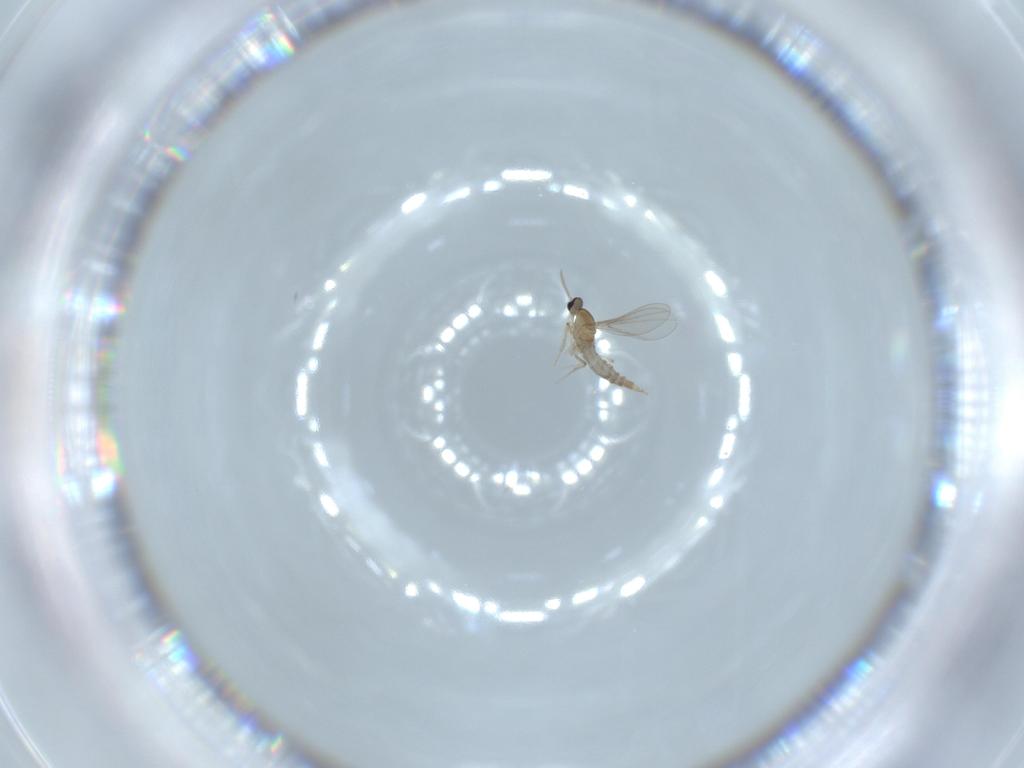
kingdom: Animalia
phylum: Arthropoda
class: Insecta
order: Diptera
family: Cecidomyiidae
